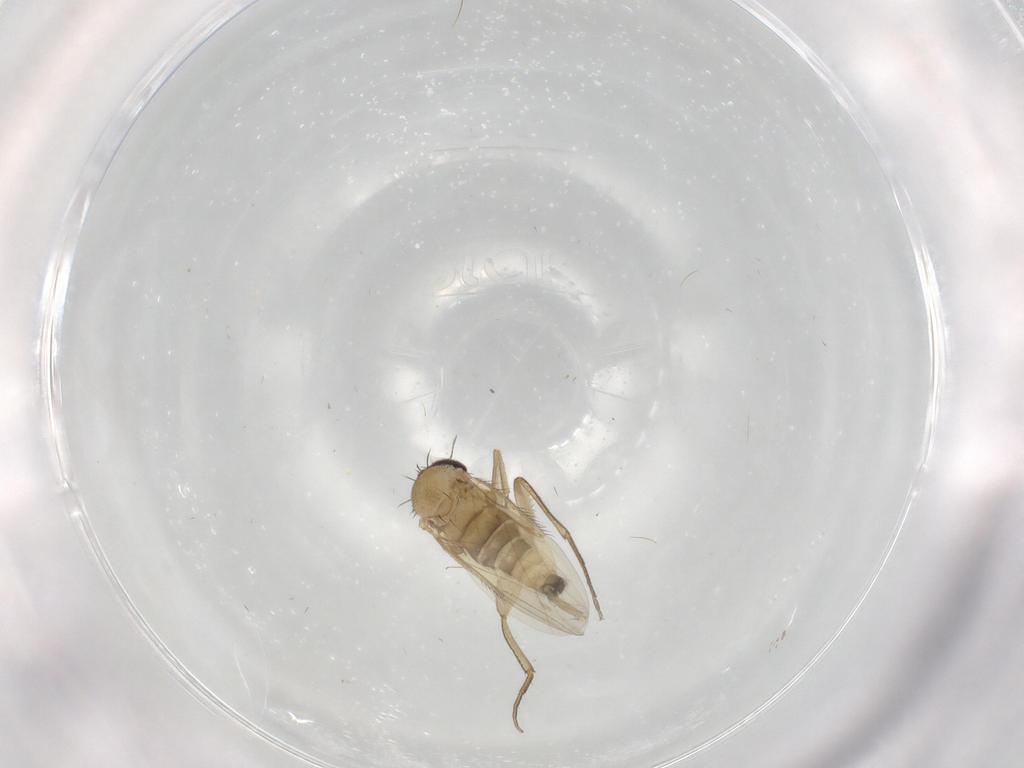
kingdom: Animalia
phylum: Arthropoda
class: Insecta
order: Diptera
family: Phoridae
